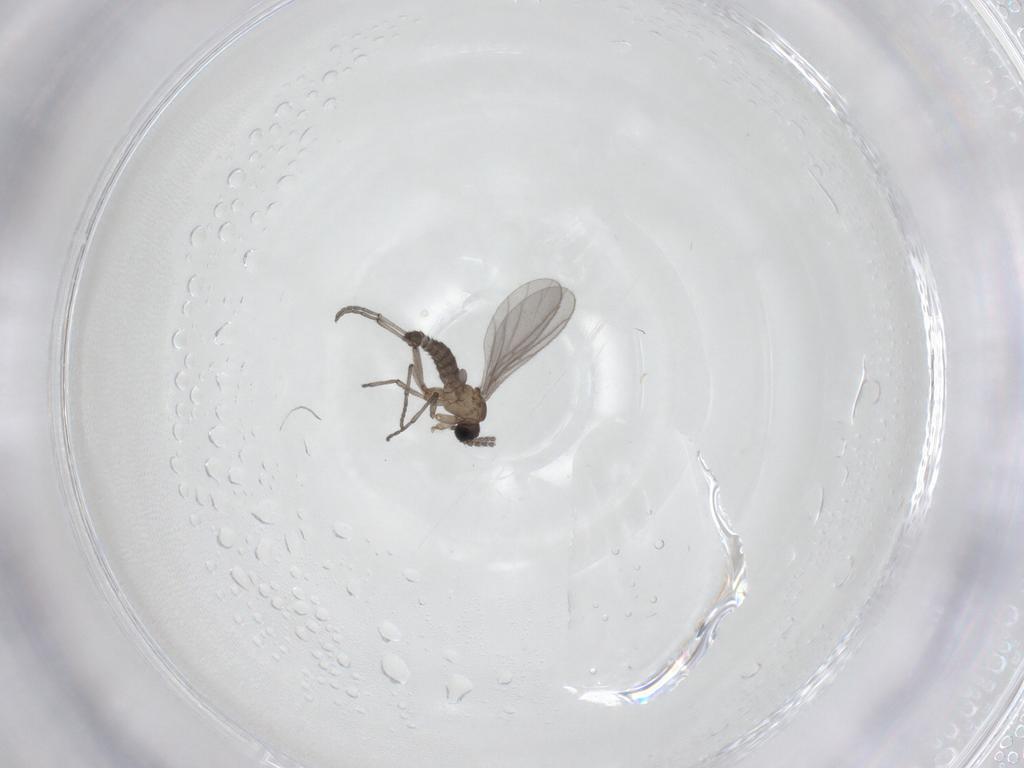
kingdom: Animalia
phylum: Arthropoda
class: Insecta
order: Diptera
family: Sciaridae
